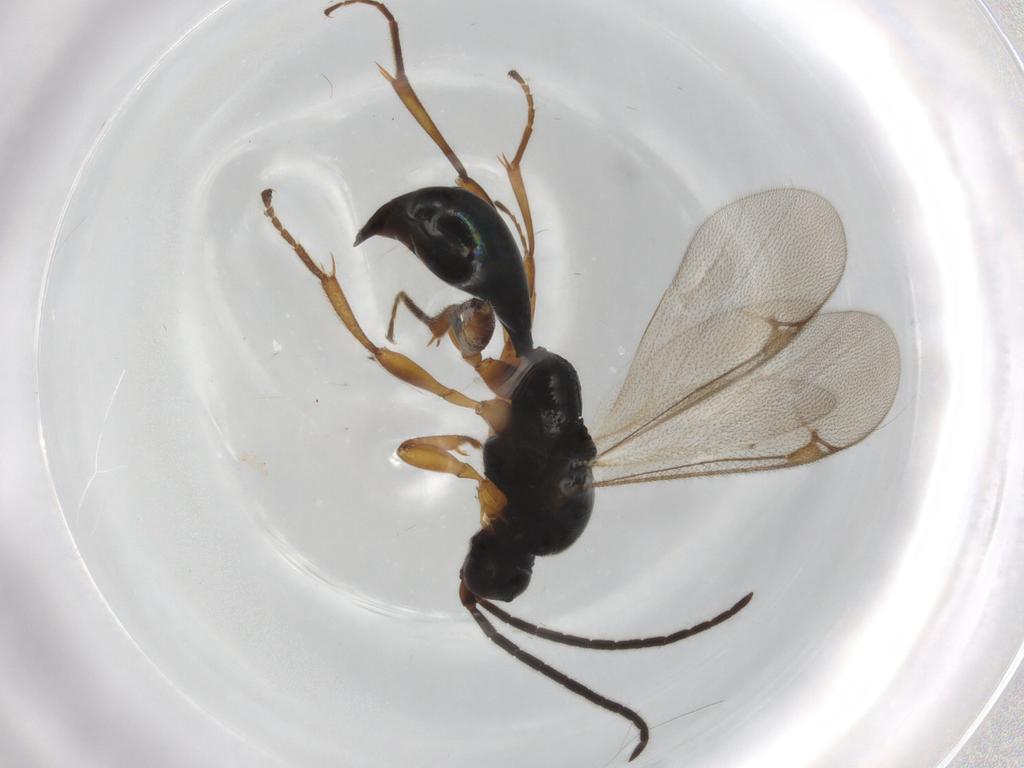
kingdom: Animalia
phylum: Arthropoda
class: Insecta
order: Hymenoptera
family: Proctotrupidae
